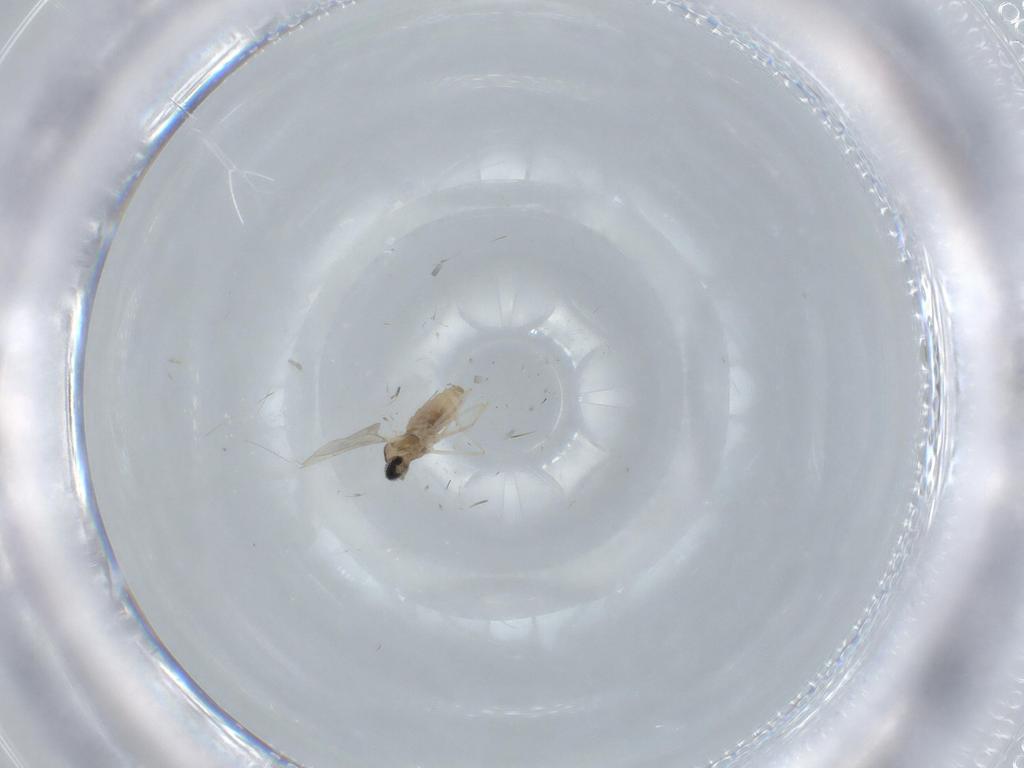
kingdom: Animalia
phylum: Arthropoda
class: Insecta
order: Diptera
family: Cecidomyiidae
